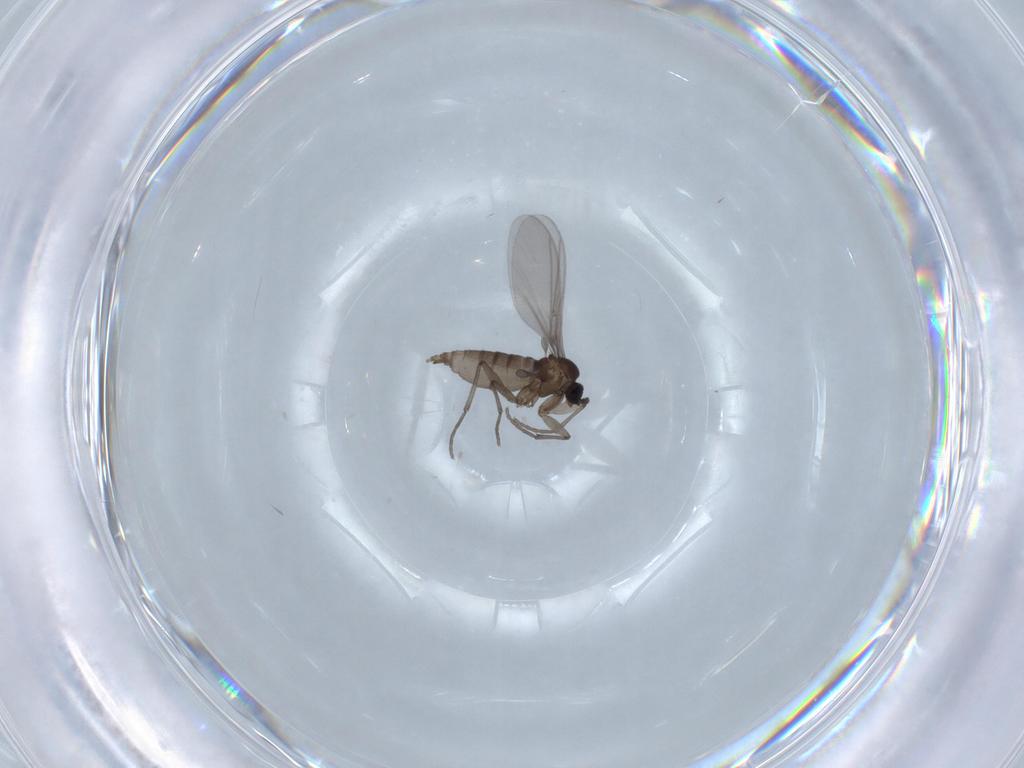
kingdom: Animalia
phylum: Arthropoda
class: Insecta
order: Diptera
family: Sciaridae
